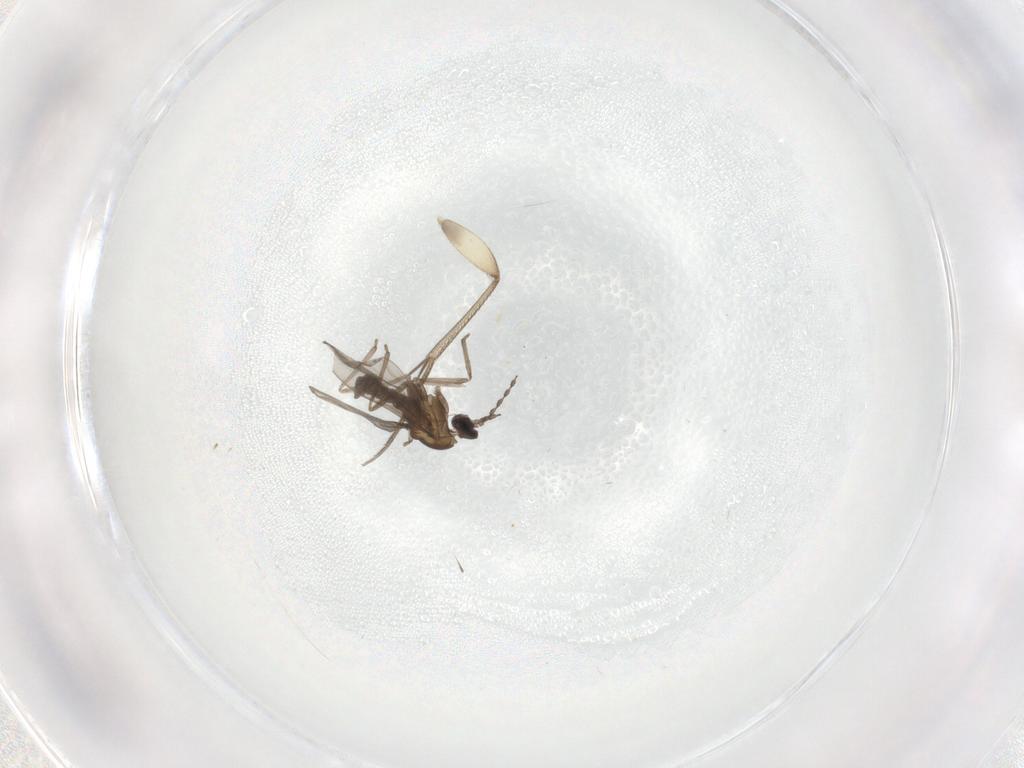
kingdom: Animalia
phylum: Arthropoda
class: Insecta
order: Diptera
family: Mycetophilidae
